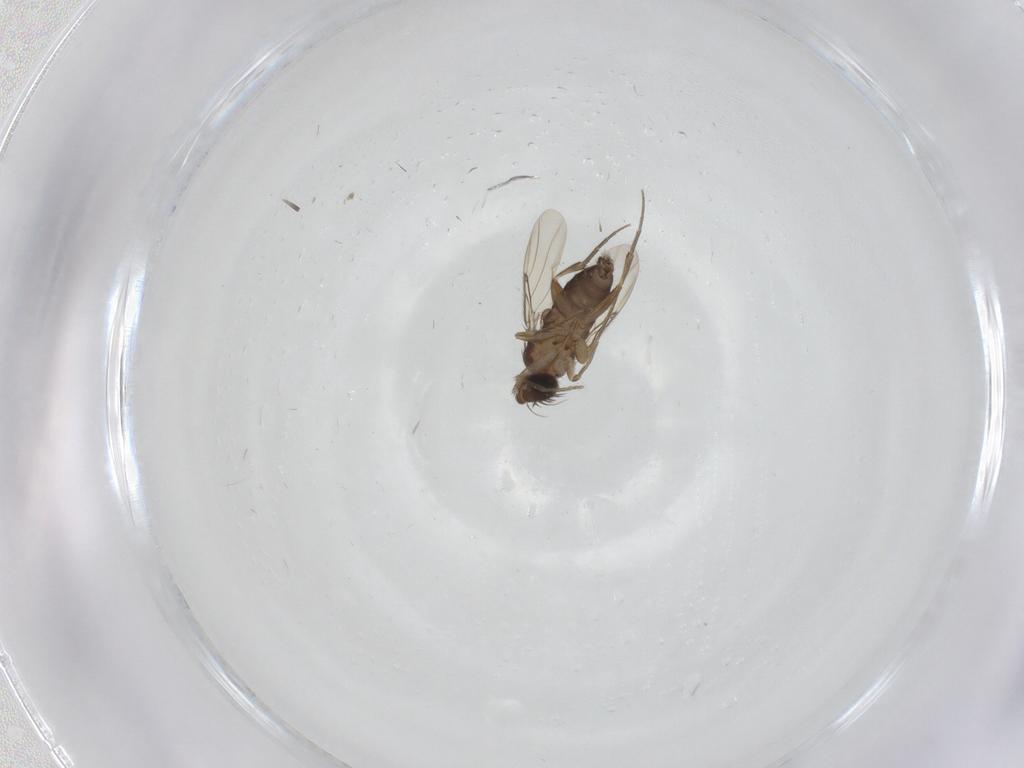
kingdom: Animalia
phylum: Arthropoda
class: Insecta
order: Diptera
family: Phoridae
